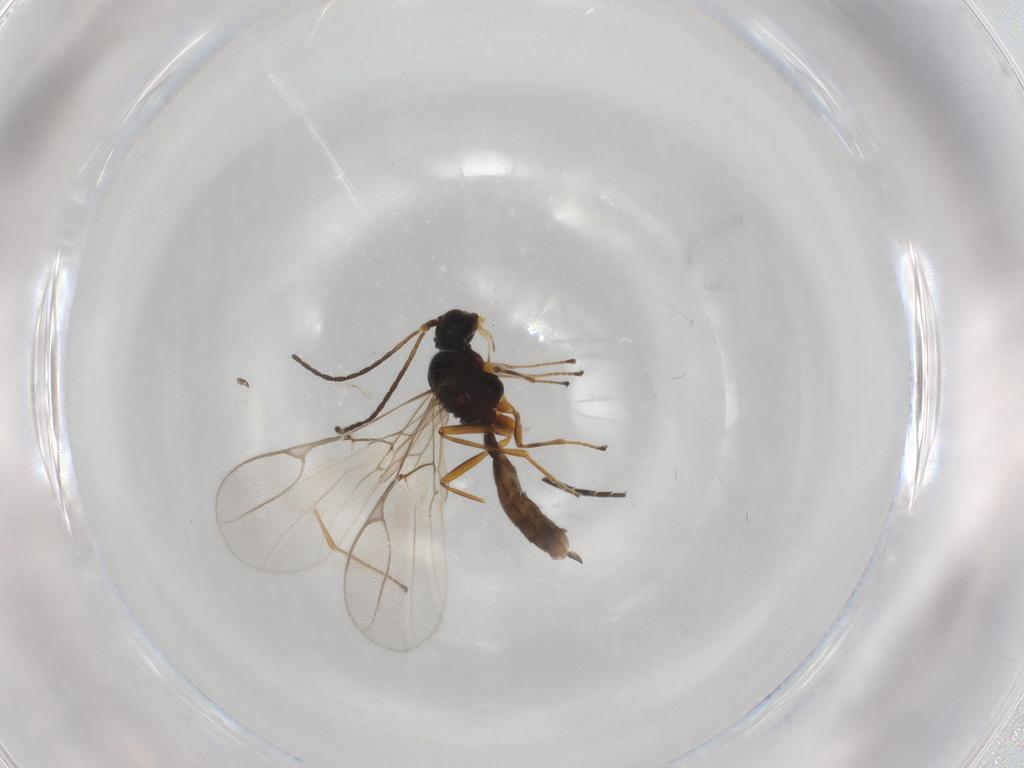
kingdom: Animalia
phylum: Arthropoda
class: Insecta
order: Hymenoptera
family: Braconidae
